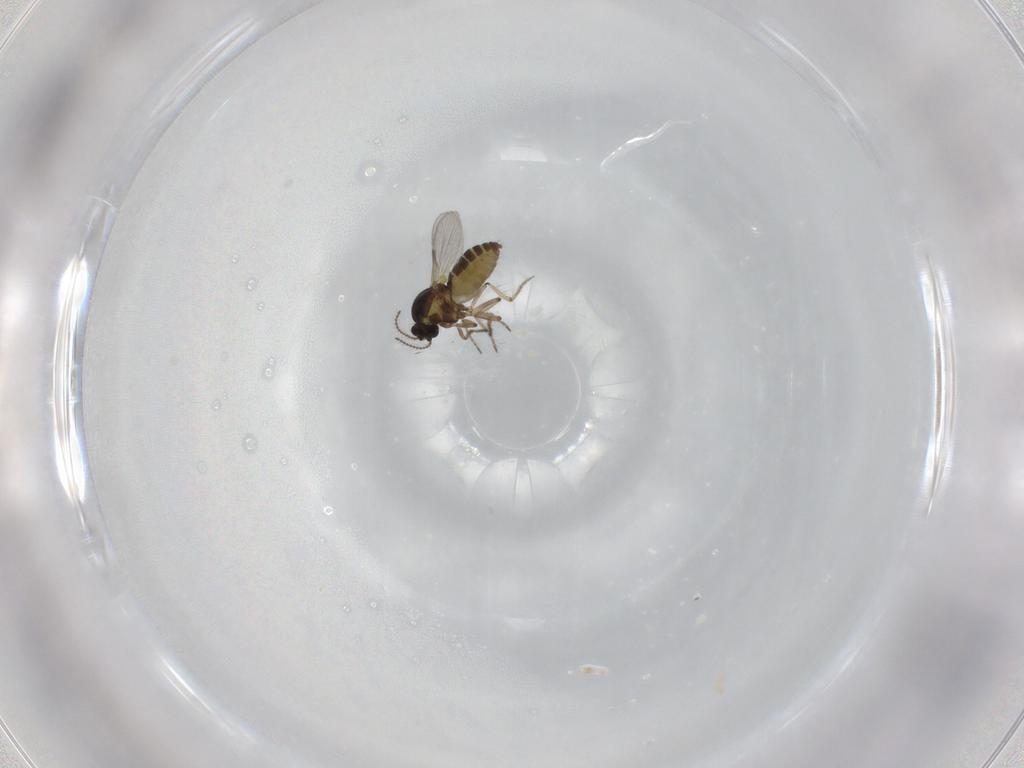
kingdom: Animalia
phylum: Arthropoda
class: Insecta
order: Diptera
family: Ceratopogonidae
